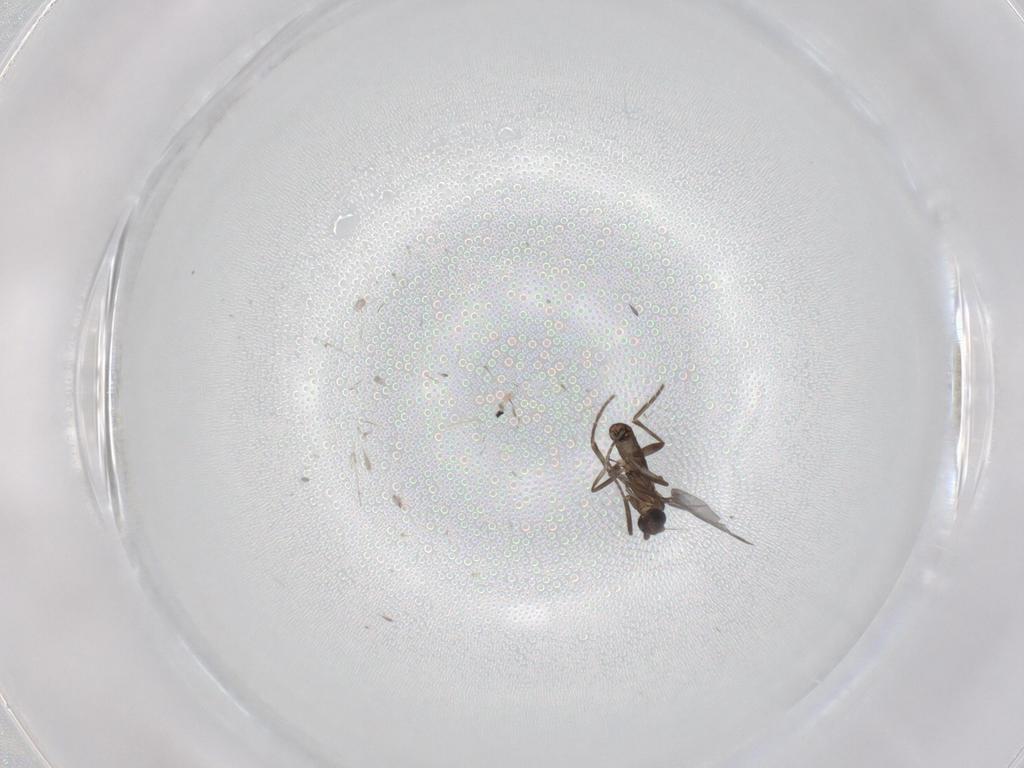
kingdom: Animalia
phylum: Arthropoda
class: Insecta
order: Diptera
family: Phoridae
